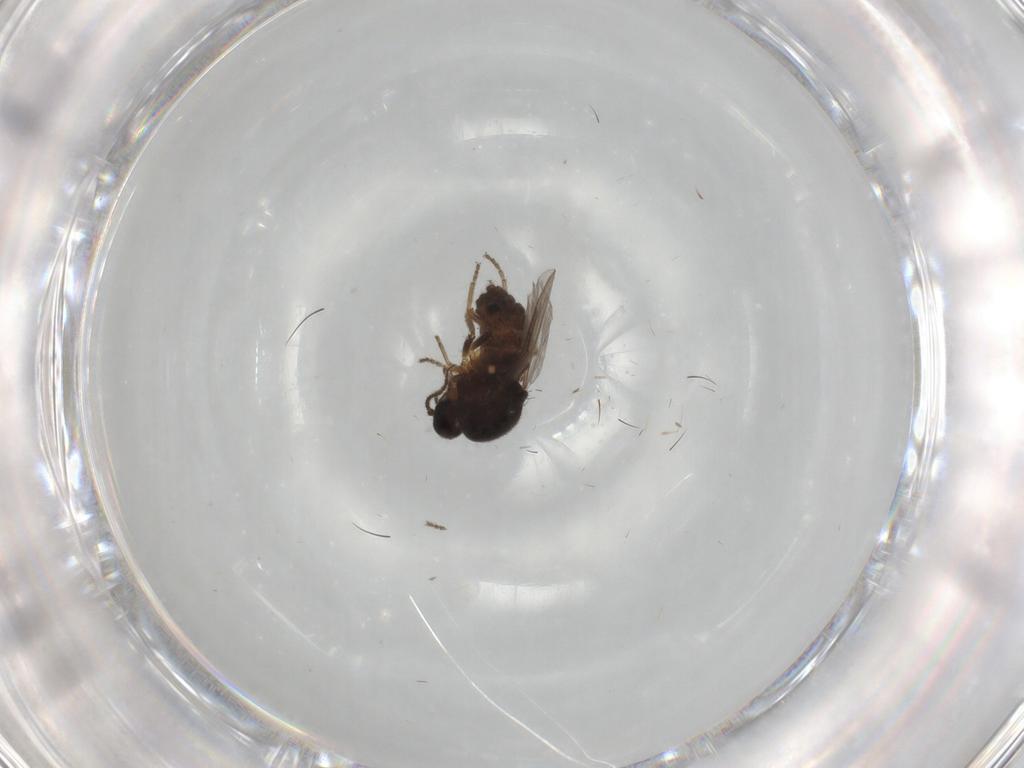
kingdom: Animalia
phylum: Arthropoda
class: Insecta
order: Diptera
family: Ceratopogonidae
